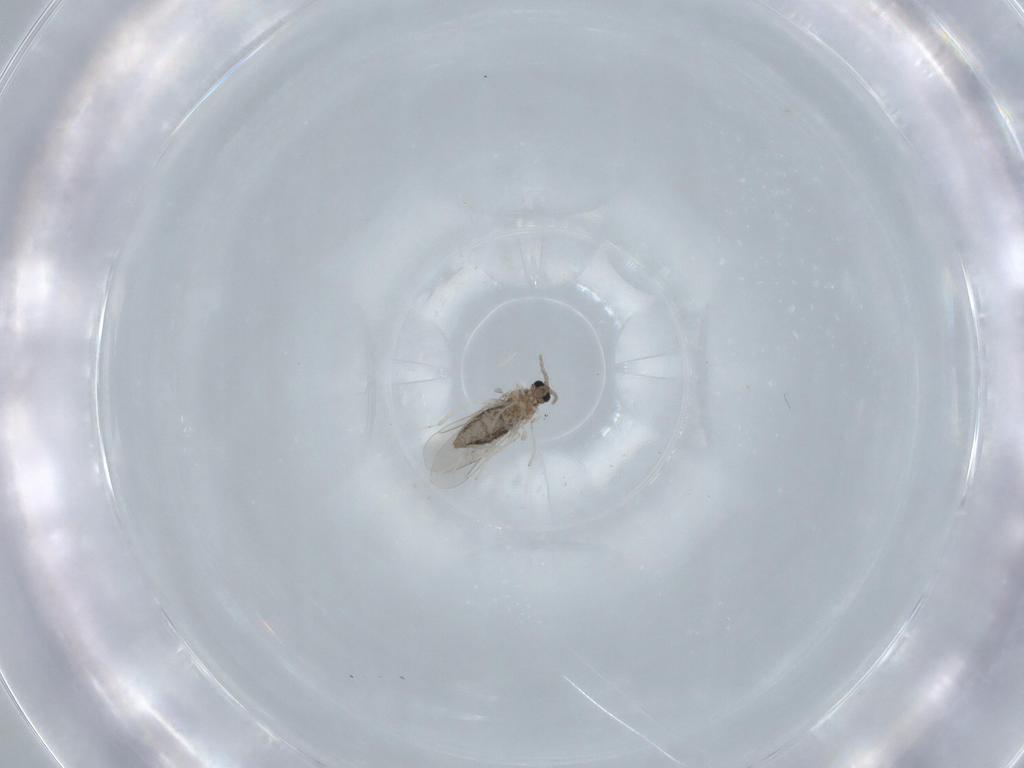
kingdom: Animalia
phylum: Arthropoda
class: Insecta
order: Diptera
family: Cecidomyiidae
